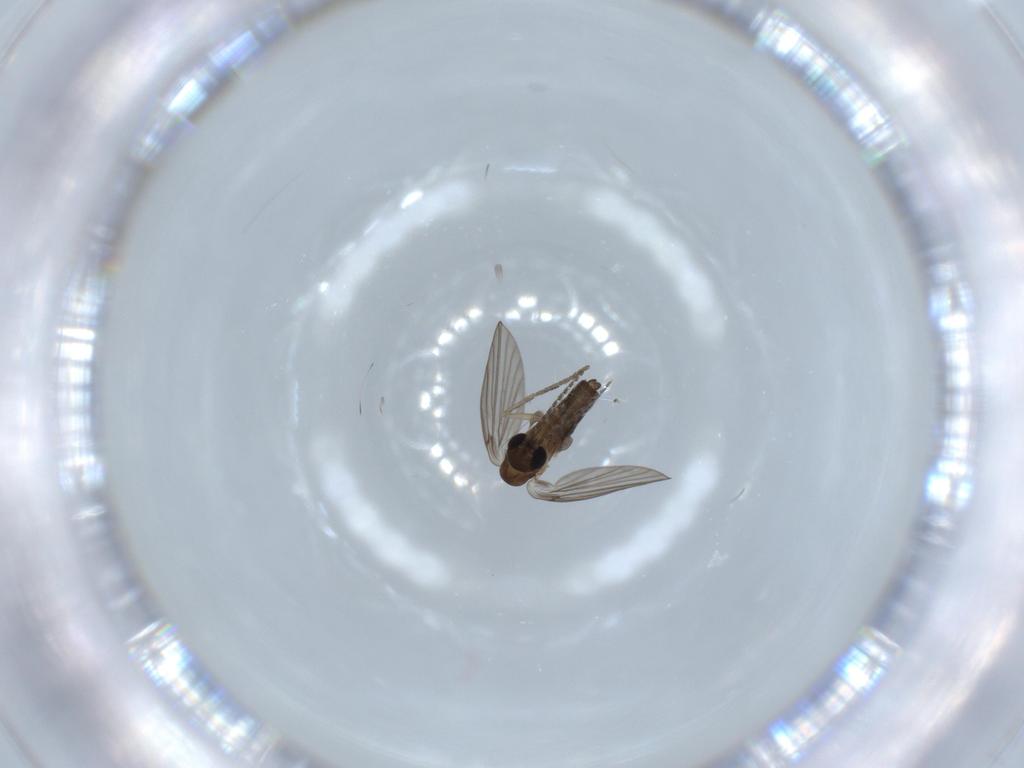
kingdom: Animalia
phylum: Arthropoda
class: Insecta
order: Diptera
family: Psychodidae
